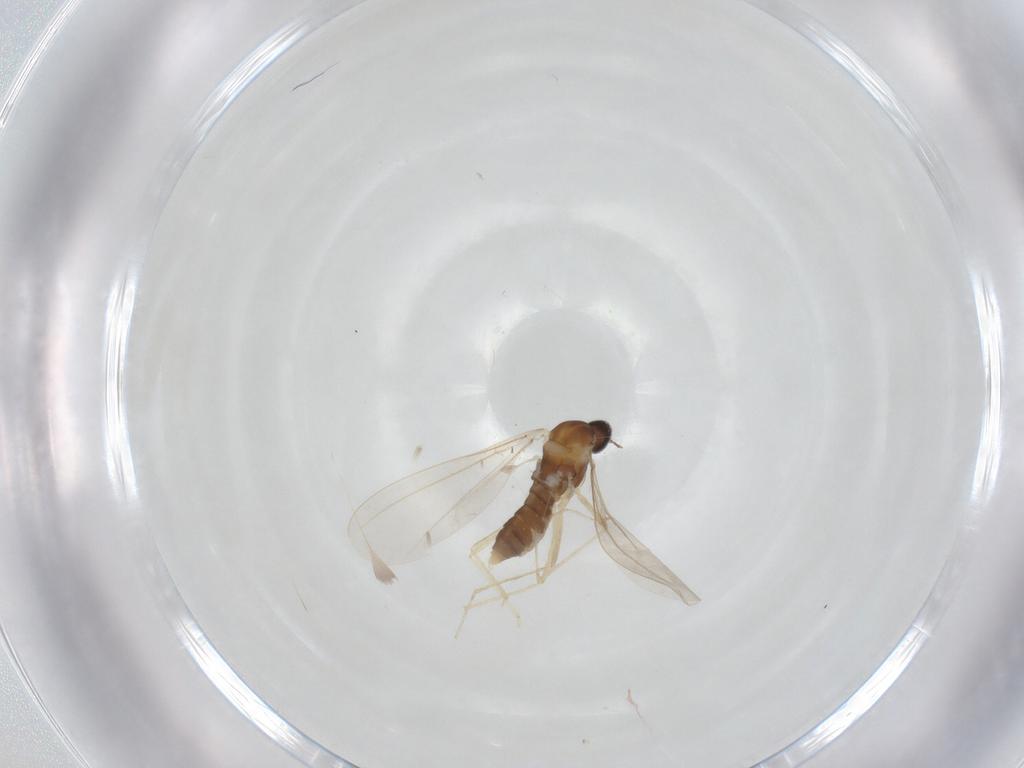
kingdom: Animalia
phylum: Arthropoda
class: Insecta
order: Diptera
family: Cecidomyiidae
